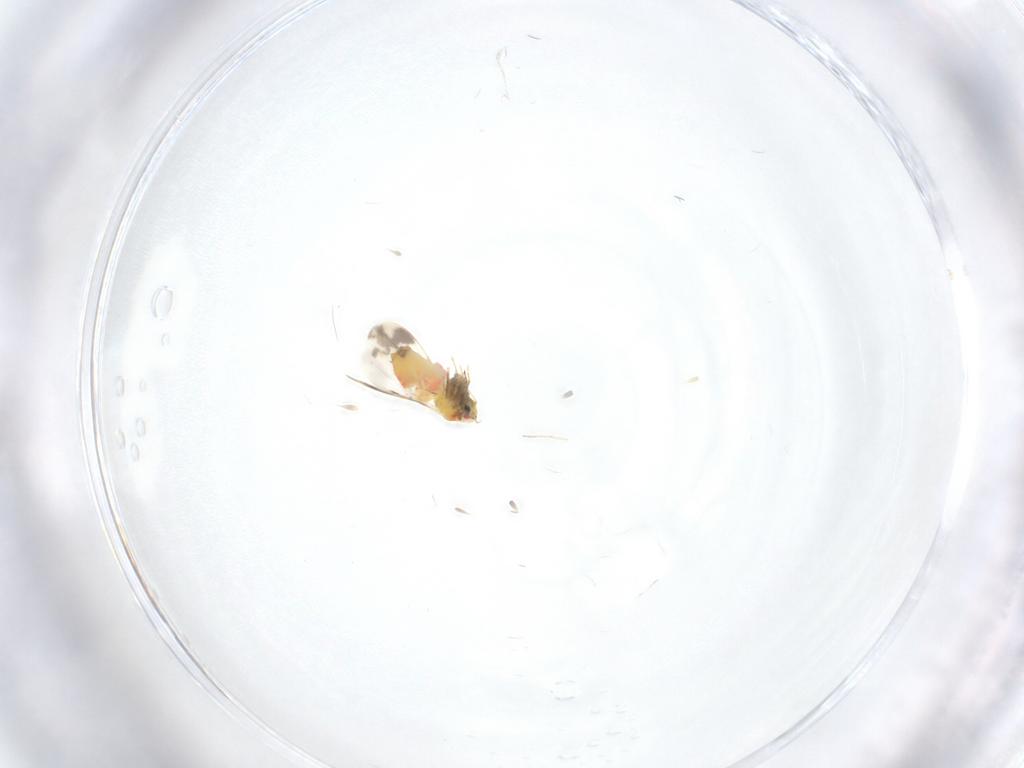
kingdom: Animalia
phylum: Arthropoda
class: Insecta
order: Hemiptera
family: Aleyrodidae
